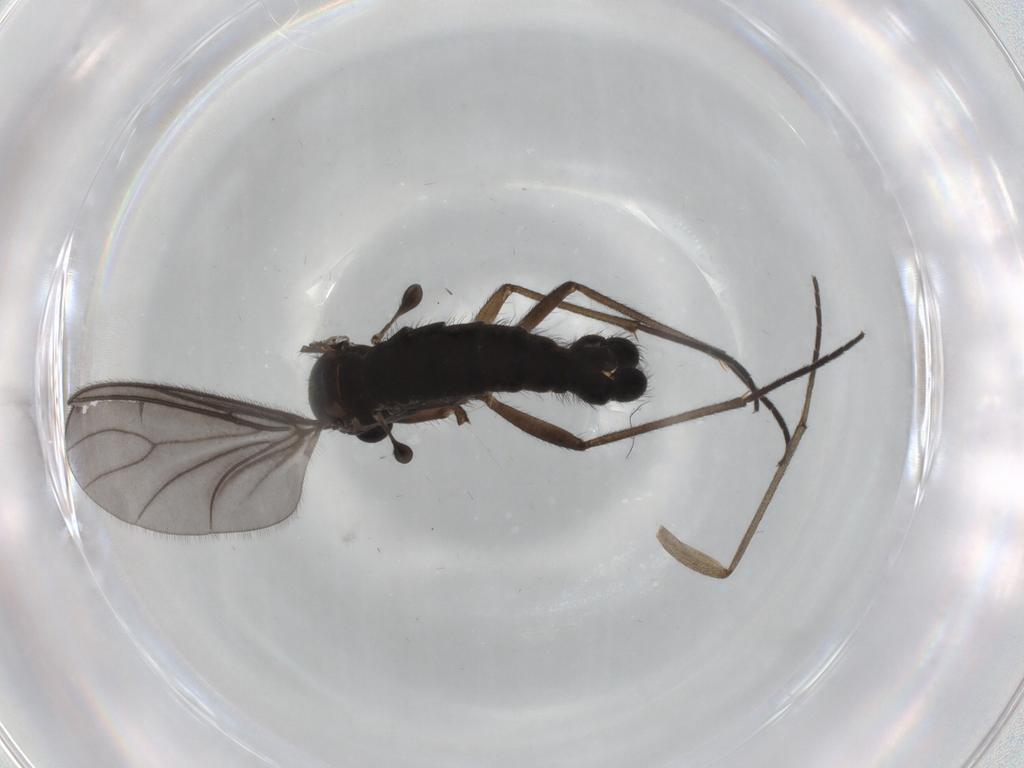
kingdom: Animalia
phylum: Arthropoda
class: Insecta
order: Diptera
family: Sciaridae
